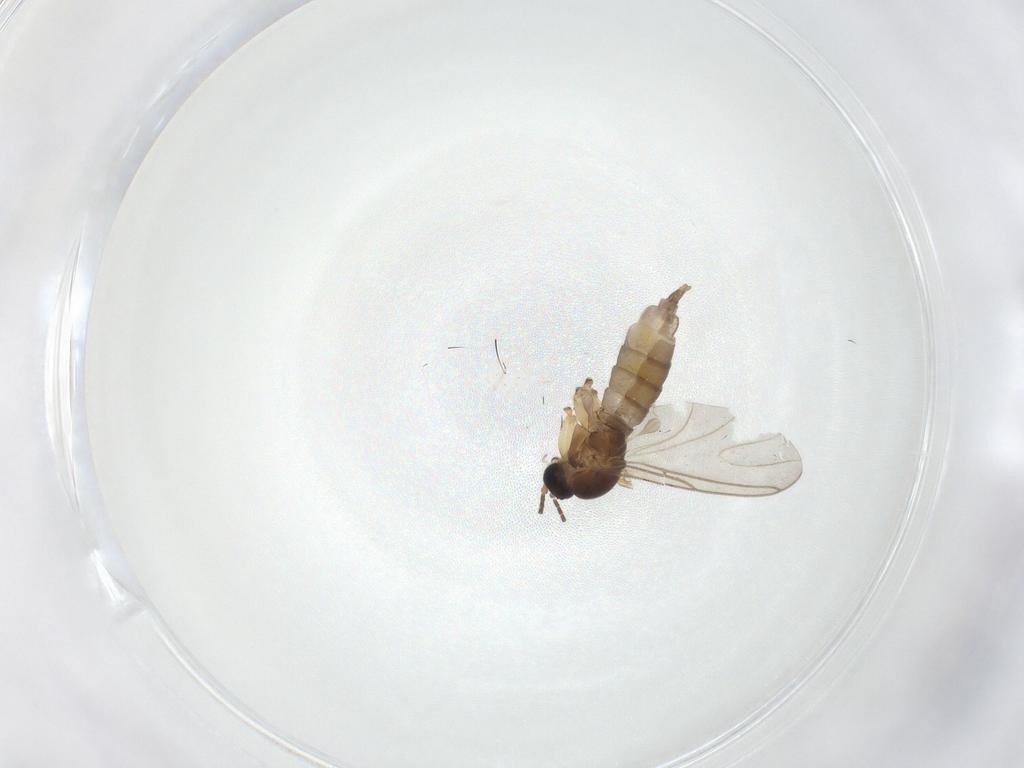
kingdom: Animalia
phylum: Arthropoda
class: Insecta
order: Diptera
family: Sciaridae
